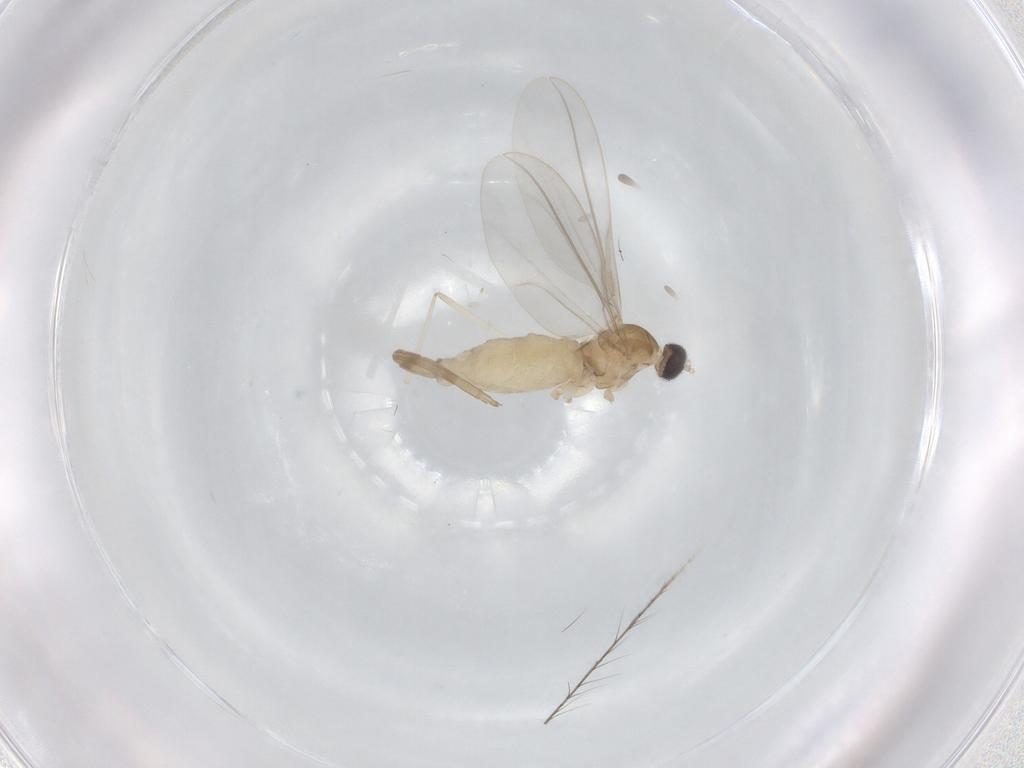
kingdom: Animalia
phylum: Arthropoda
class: Insecta
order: Diptera
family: Cecidomyiidae
